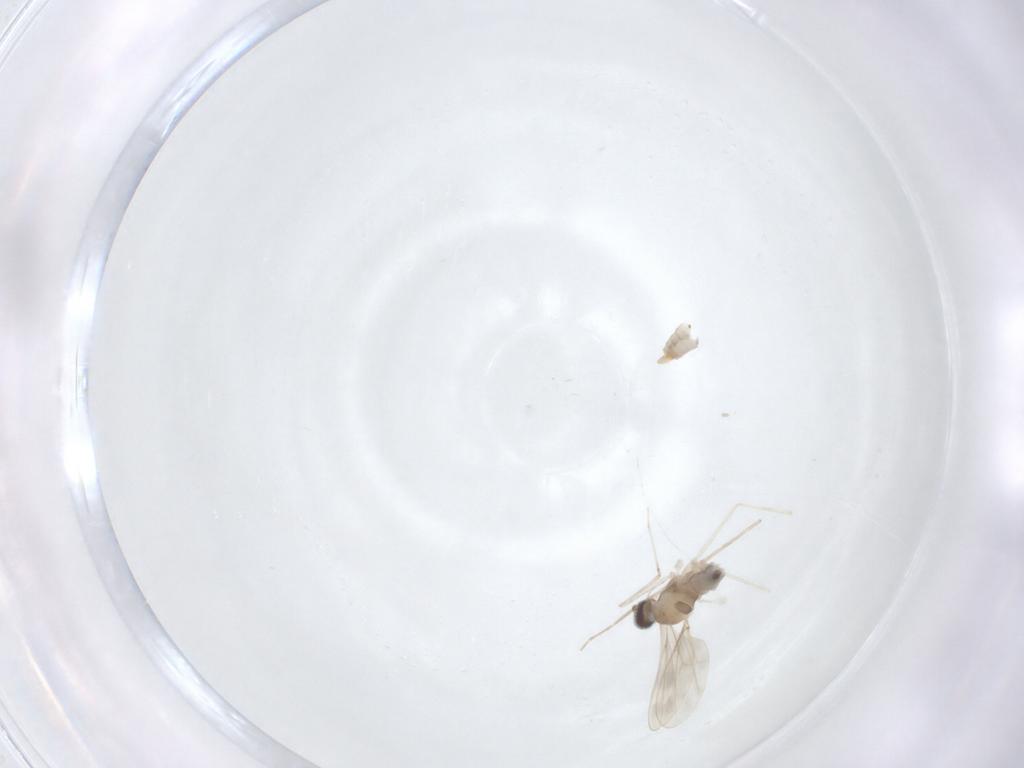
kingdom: Animalia
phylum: Arthropoda
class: Insecta
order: Diptera
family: Cecidomyiidae
